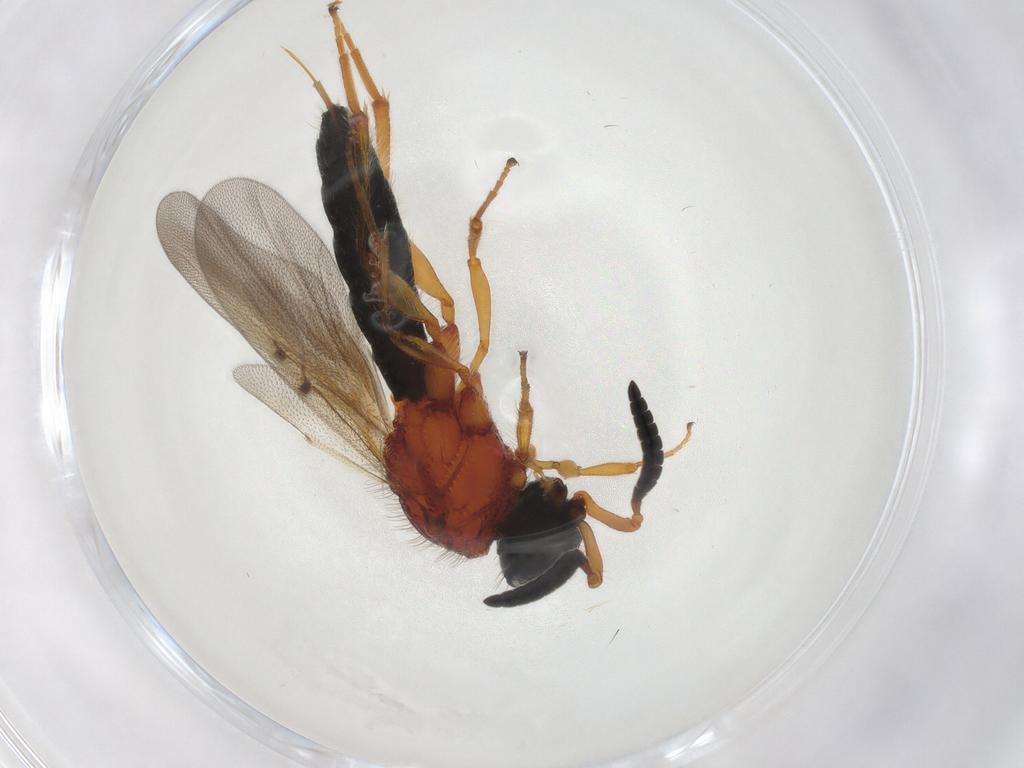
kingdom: Animalia
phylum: Arthropoda
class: Insecta
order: Hymenoptera
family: Scelionidae
